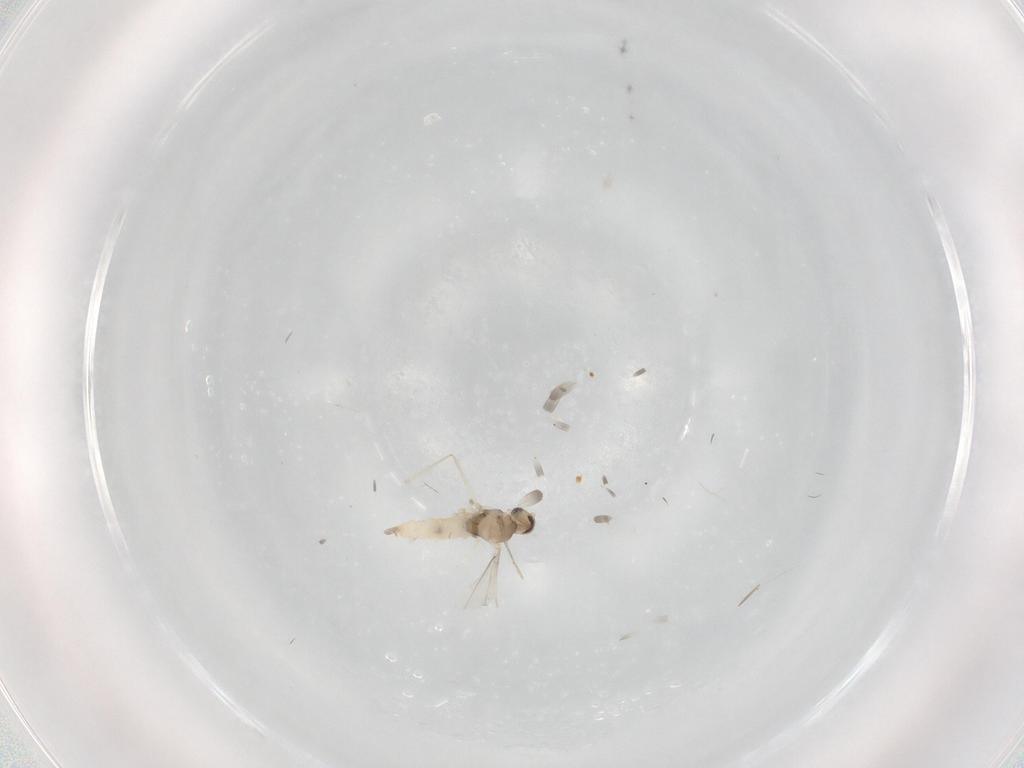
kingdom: Animalia
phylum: Arthropoda
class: Insecta
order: Diptera
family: Cecidomyiidae
